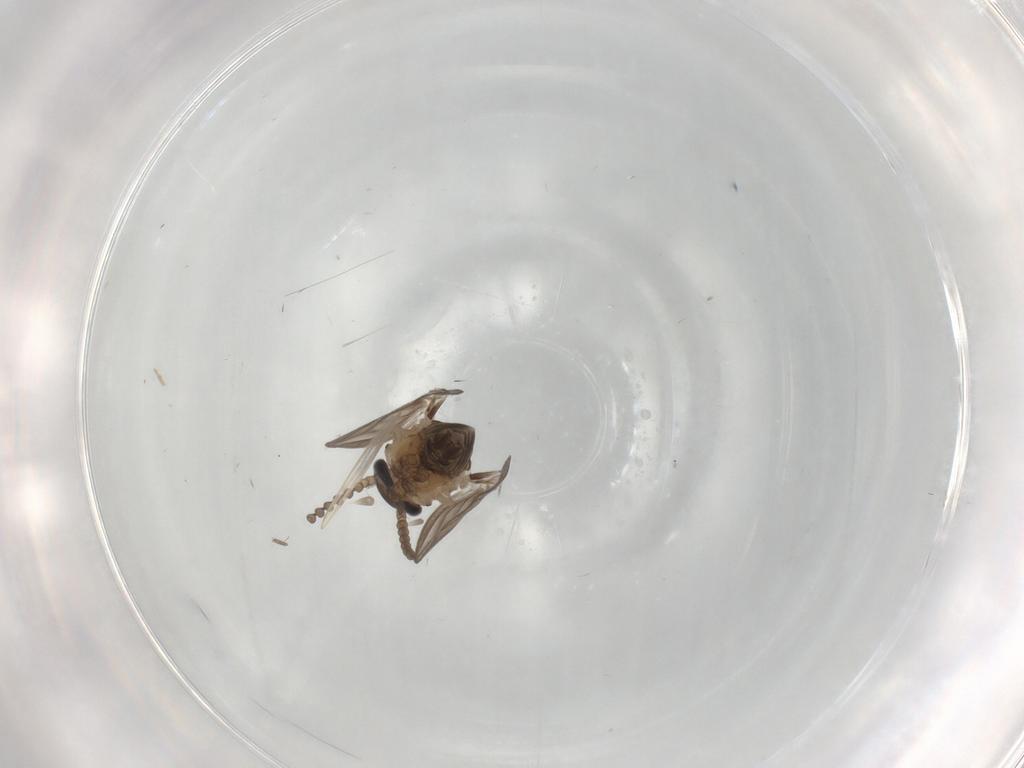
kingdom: Animalia
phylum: Arthropoda
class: Insecta
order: Diptera
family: Psychodidae
